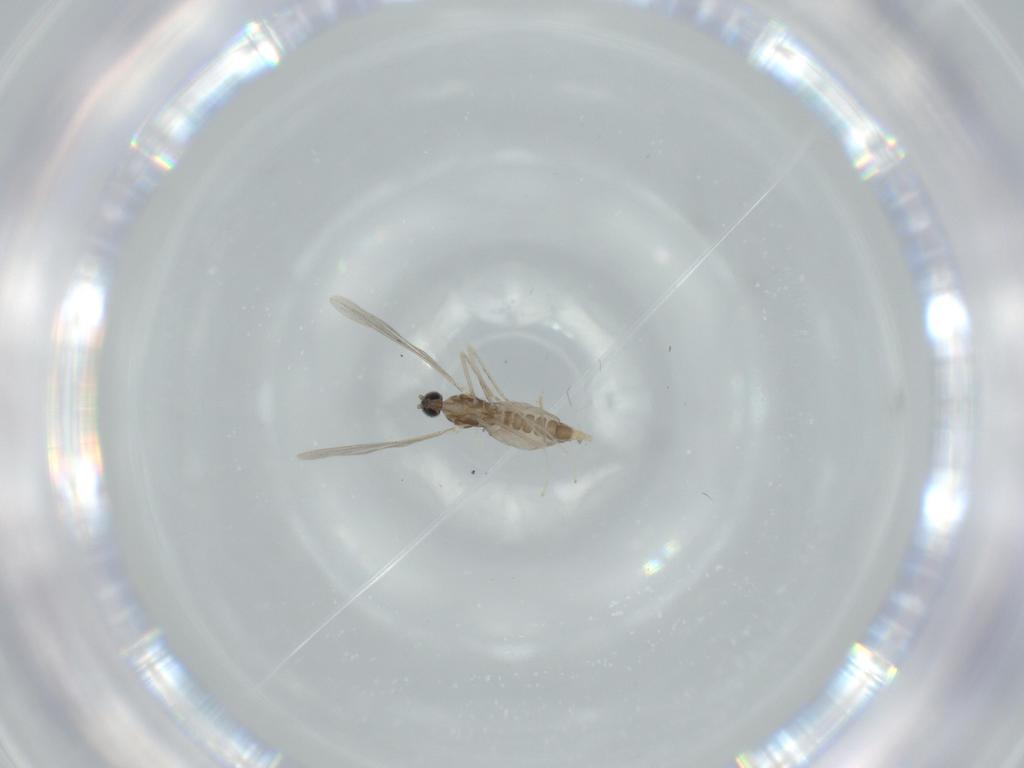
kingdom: Animalia
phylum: Arthropoda
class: Insecta
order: Diptera
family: Cecidomyiidae
